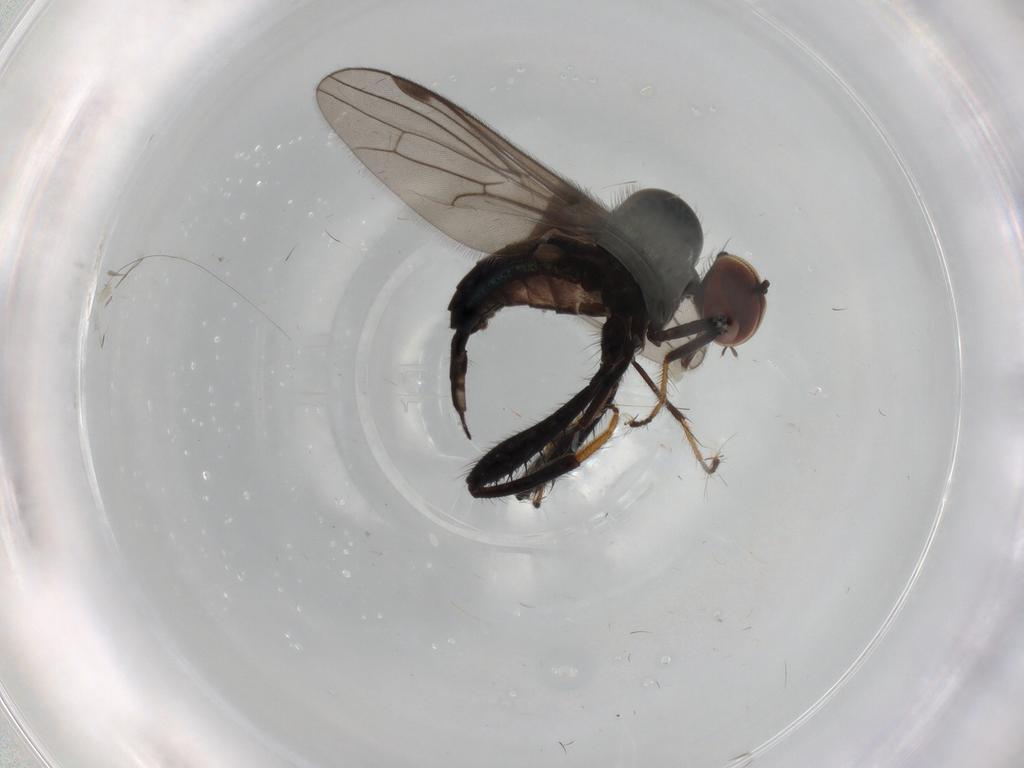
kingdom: Animalia
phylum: Arthropoda
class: Insecta
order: Diptera
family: Hybotidae
